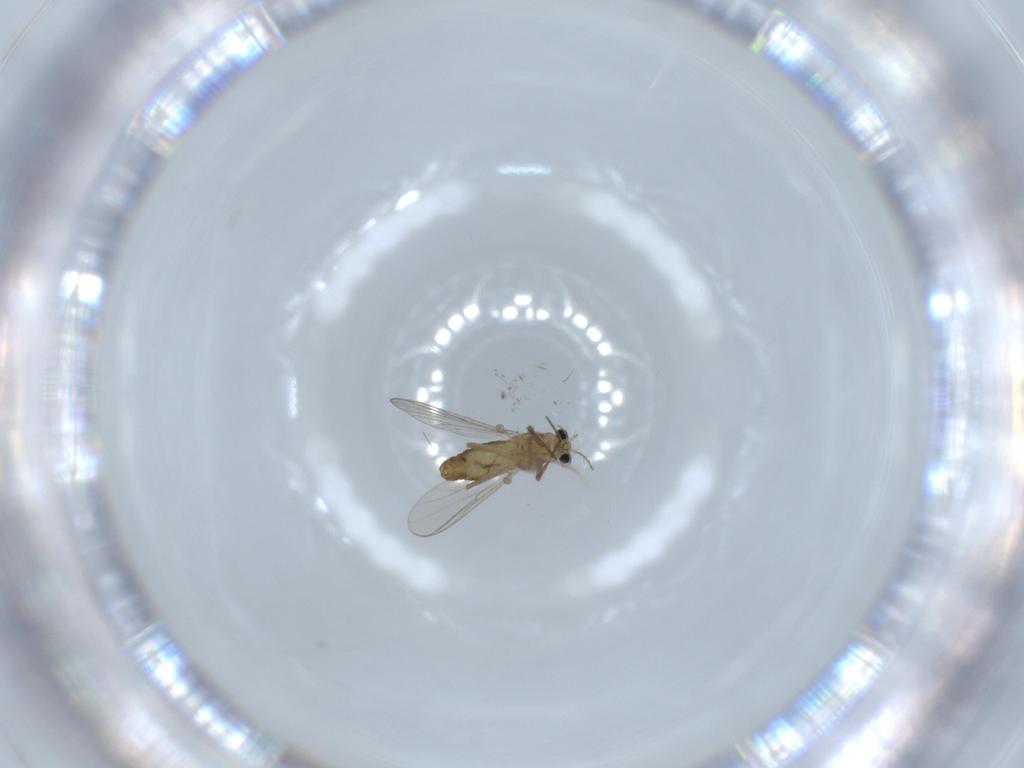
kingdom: Animalia
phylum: Arthropoda
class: Insecta
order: Diptera
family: Chironomidae
